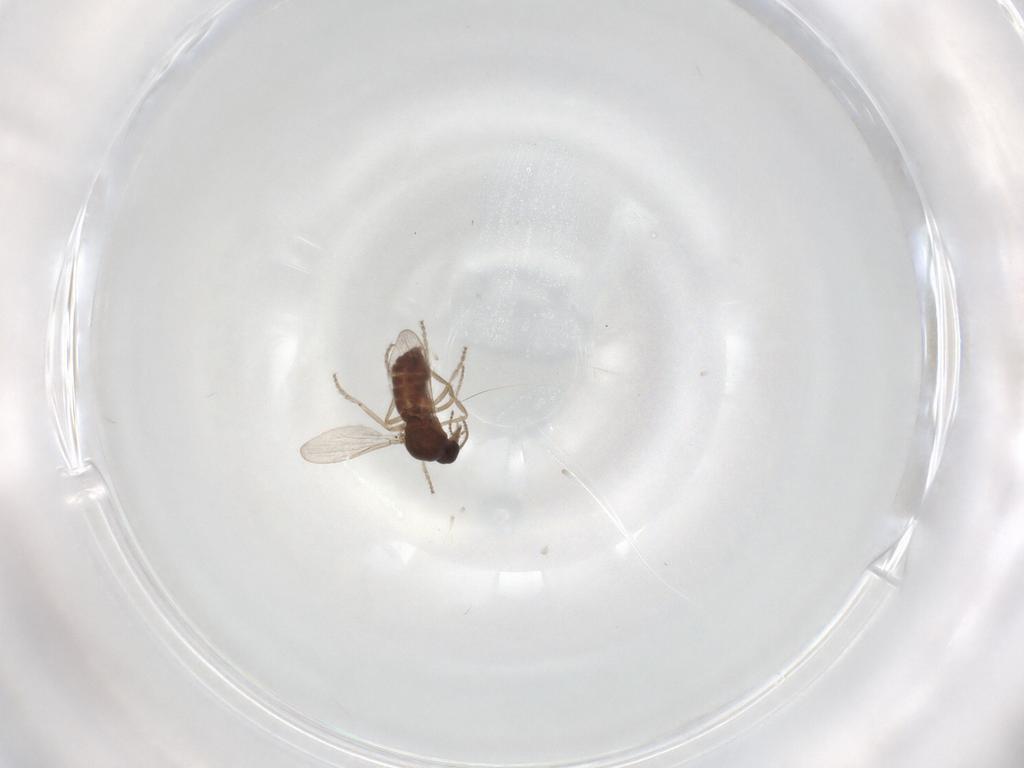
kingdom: Animalia
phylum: Arthropoda
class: Insecta
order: Diptera
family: Ceratopogonidae
